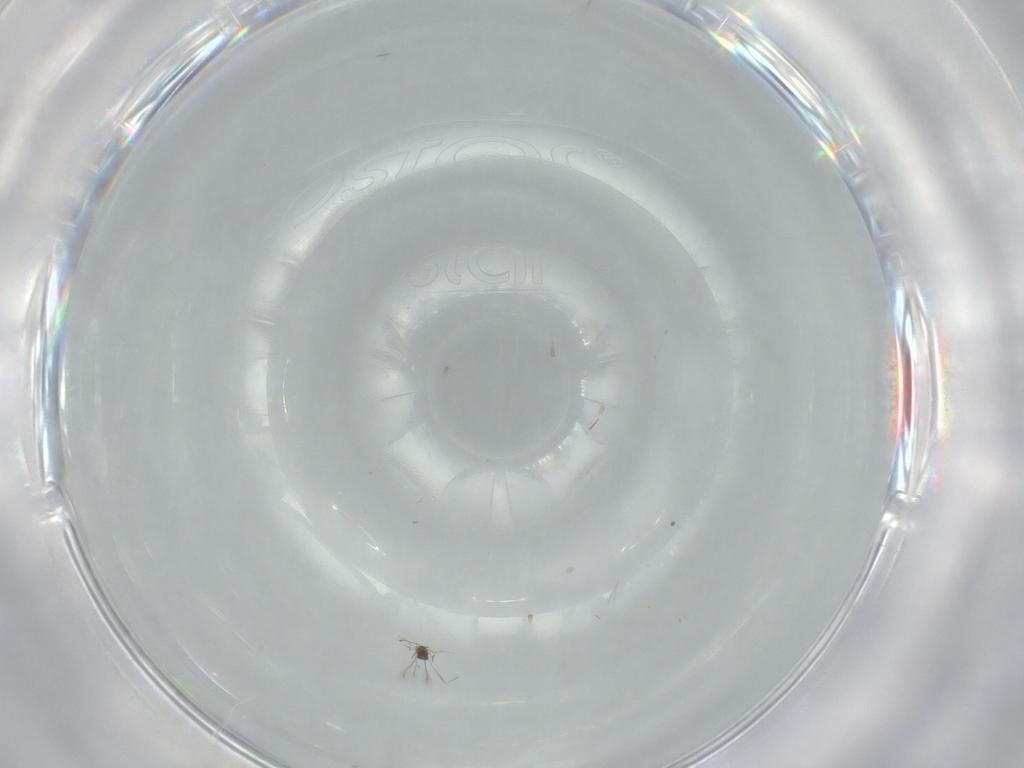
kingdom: Animalia
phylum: Arthropoda
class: Insecta
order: Hymenoptera
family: Mymaridae
